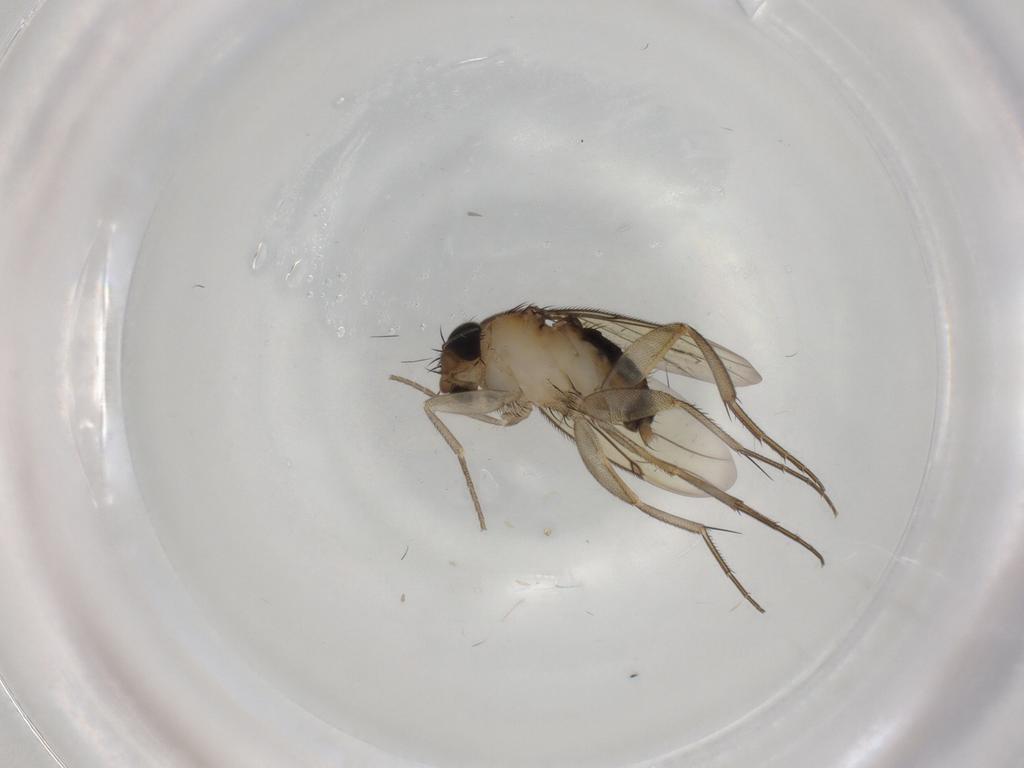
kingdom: Animalia
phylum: Arthropoda
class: Insecta
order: Diptera
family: Phoridae
